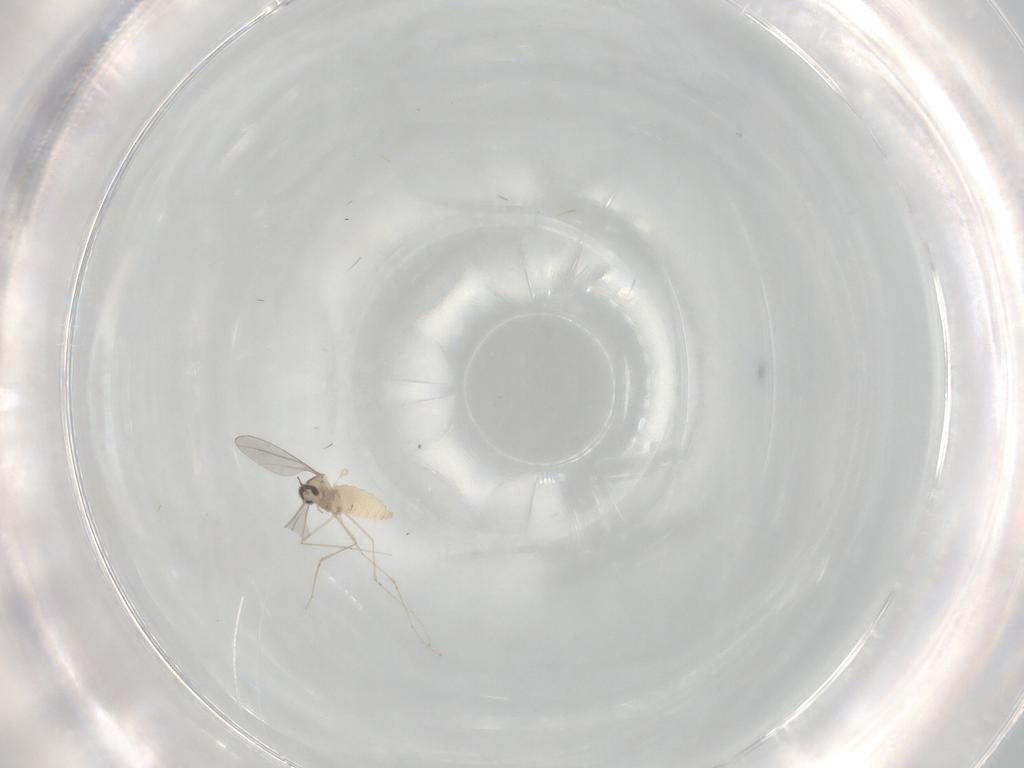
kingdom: Animalia
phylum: Arthropoda
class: Insecta
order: Diptera
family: Cecidomyiidae
